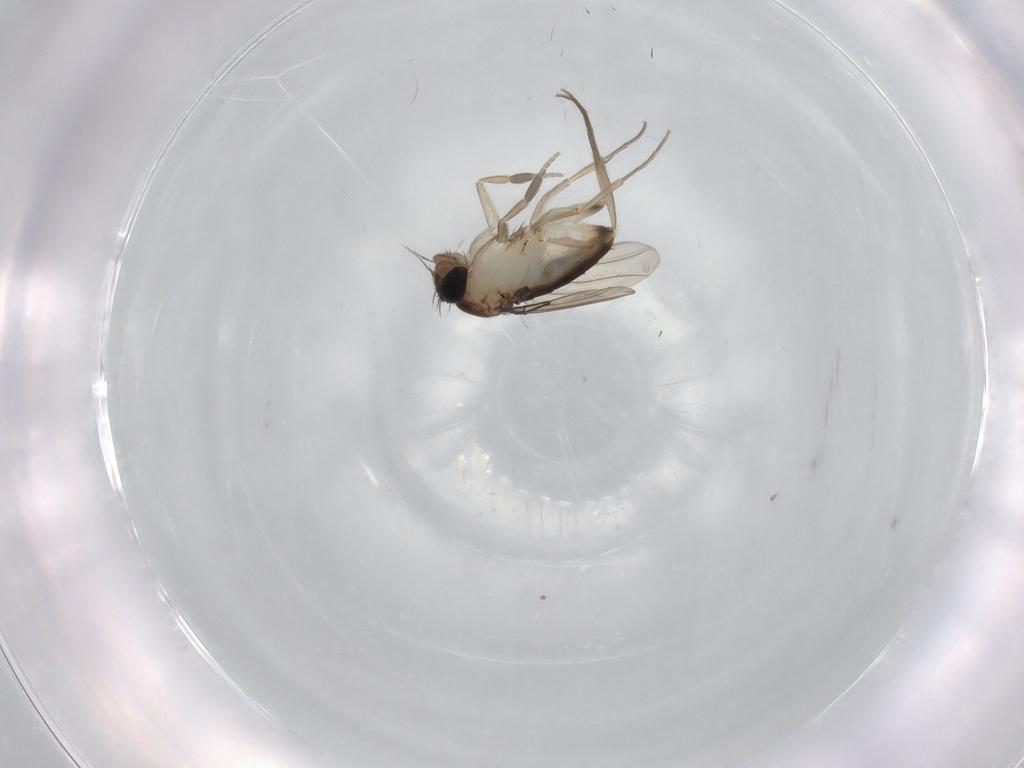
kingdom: Animalia
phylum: Arthropoda
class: Insecta
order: Diptera
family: Phoridae
